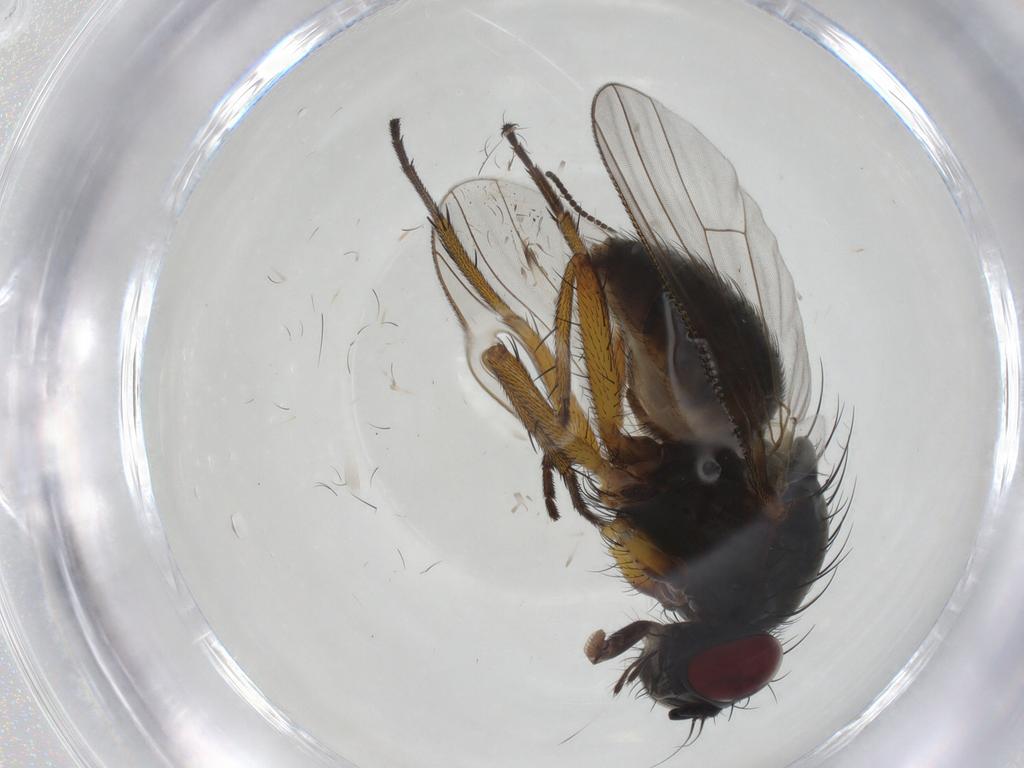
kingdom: Animalia
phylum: Arthropoda
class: Insecta
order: Diptera
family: Muscidae
